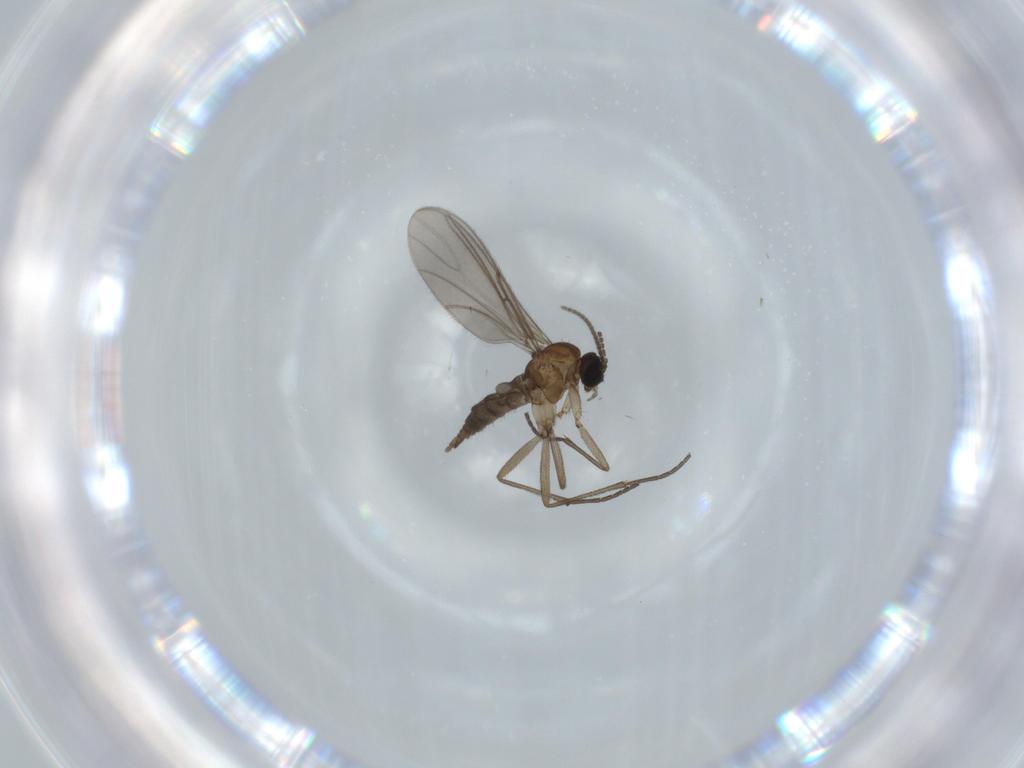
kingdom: Animalia
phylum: Arthropoda
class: Insecta
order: Diptera
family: Sciaridae
